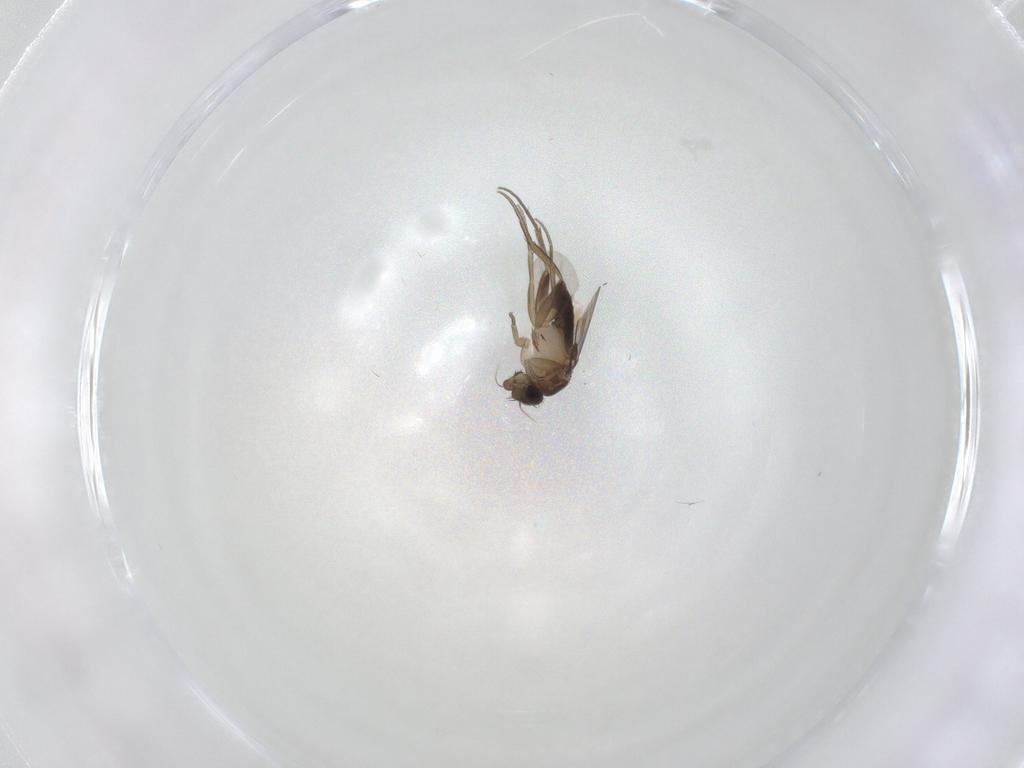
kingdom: Animalia
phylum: Arthropoda
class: Insecta
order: Diptera
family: Phoridae
